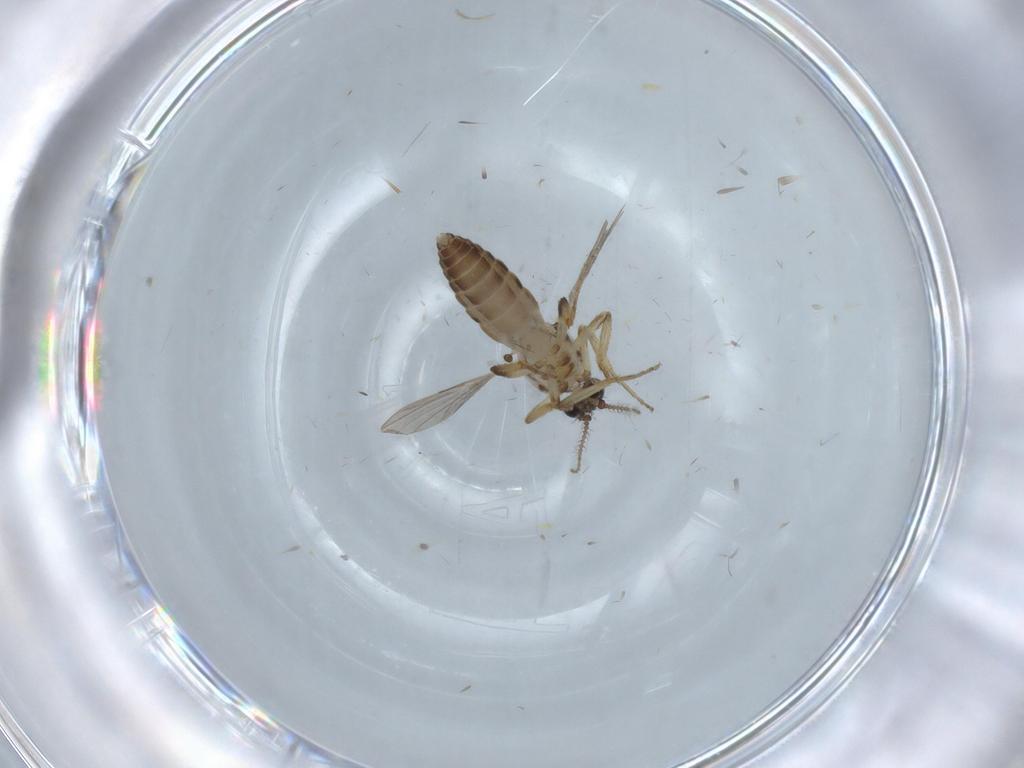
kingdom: Animalia
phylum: Arthropoda
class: Insecta
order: Diptera
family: Ceratopogonidae
